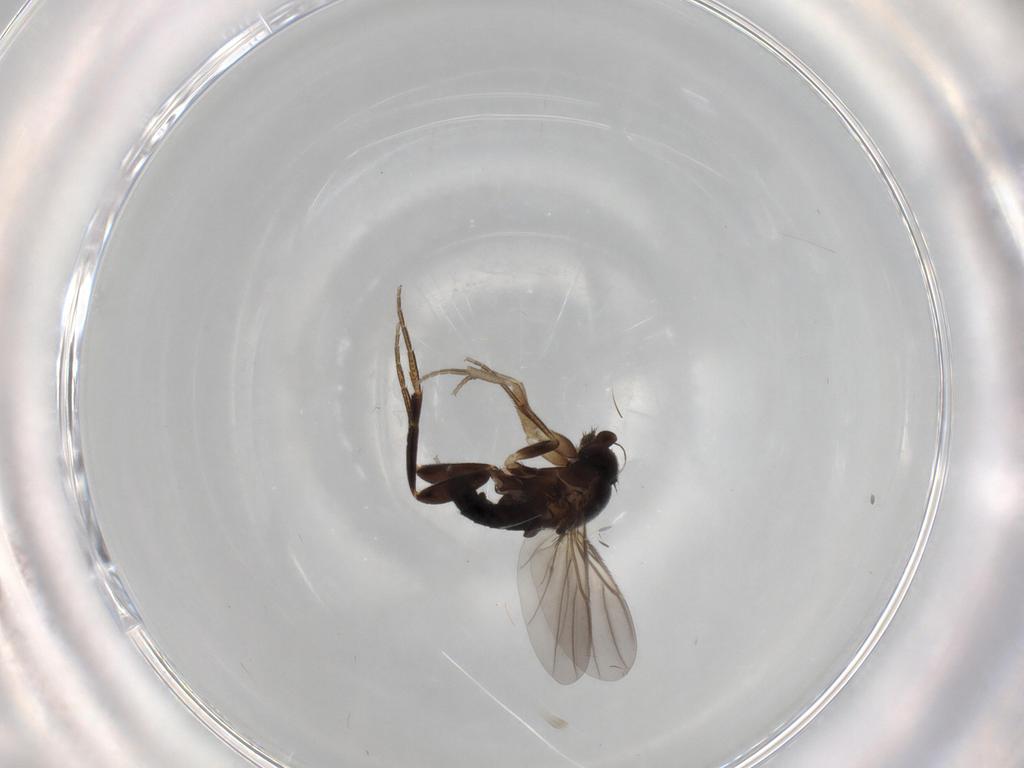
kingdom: Animalia
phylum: Arthropoda
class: Insecta
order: Diptera
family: Phoridae
